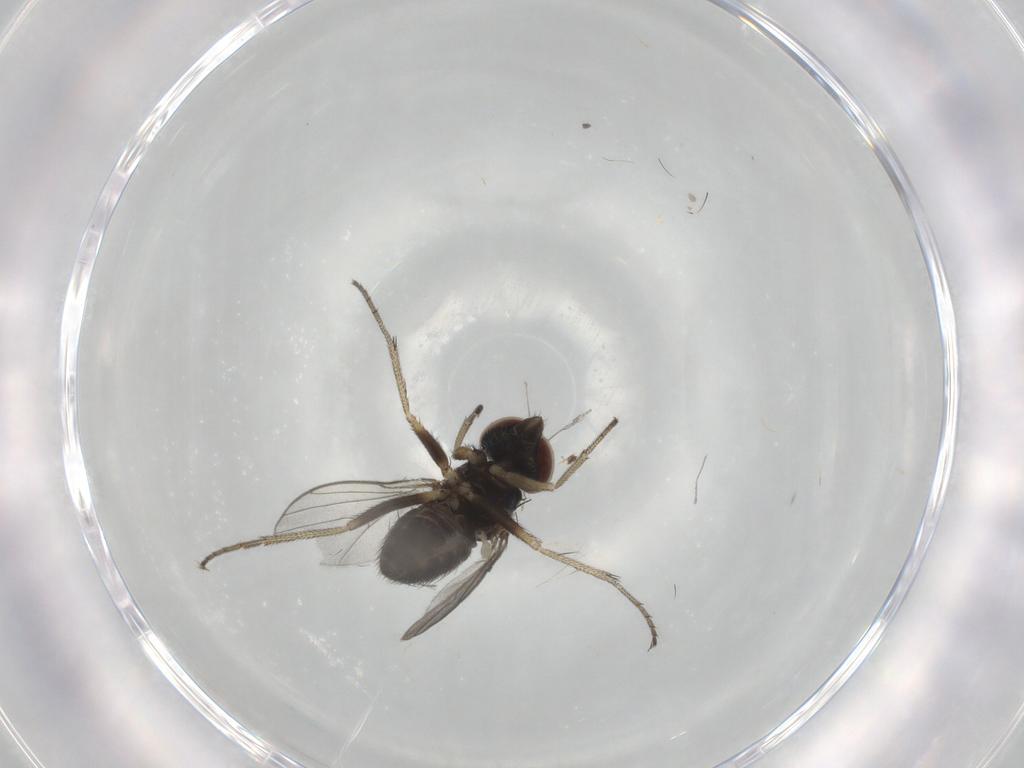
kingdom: Animalia
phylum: Arthropoda
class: Insecta
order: Diptera
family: Dolichopodidae
